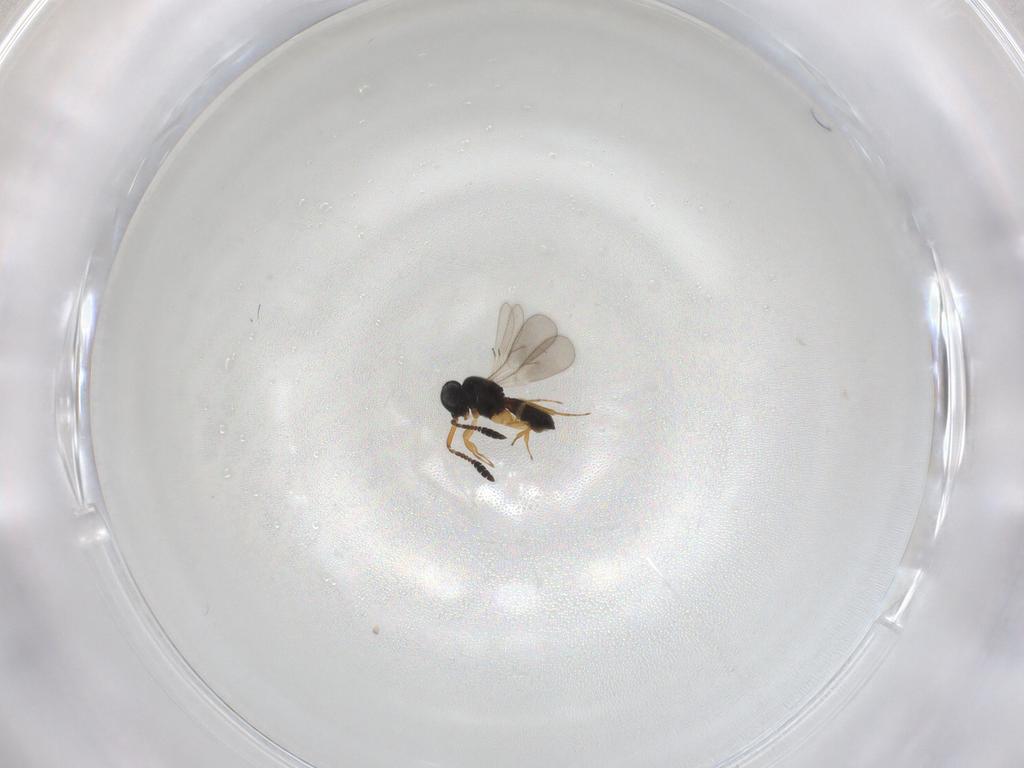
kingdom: Animalia
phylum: Arthropoda
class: Insecta
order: Hymenoptera
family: Scelionidae
